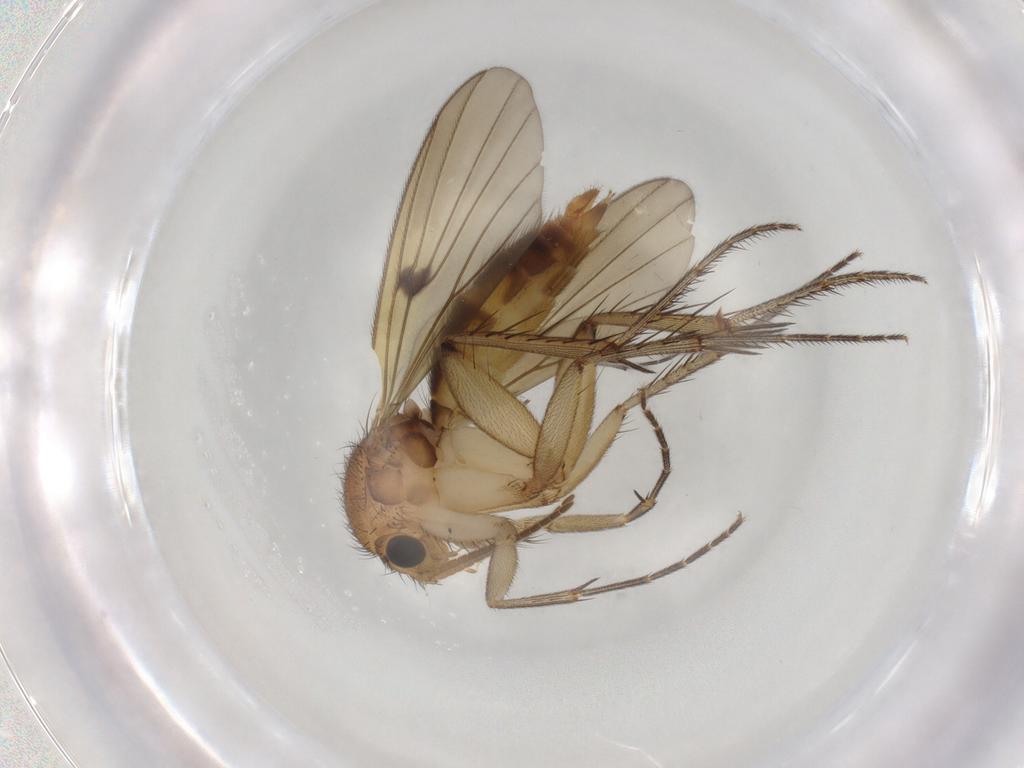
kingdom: Animalia
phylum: Arthropoda
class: Insecta
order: Diptera
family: Mycetophilidae
